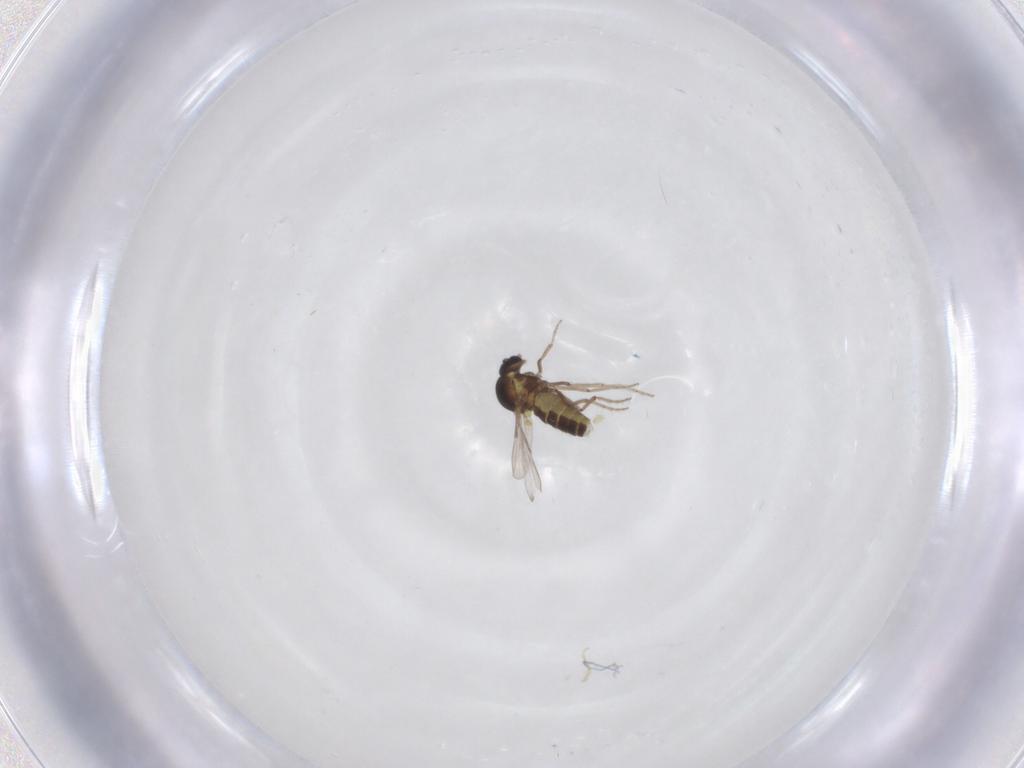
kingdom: Animalia
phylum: Arthropoda
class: Insecta
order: Diptera
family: Ceratopogonidae
